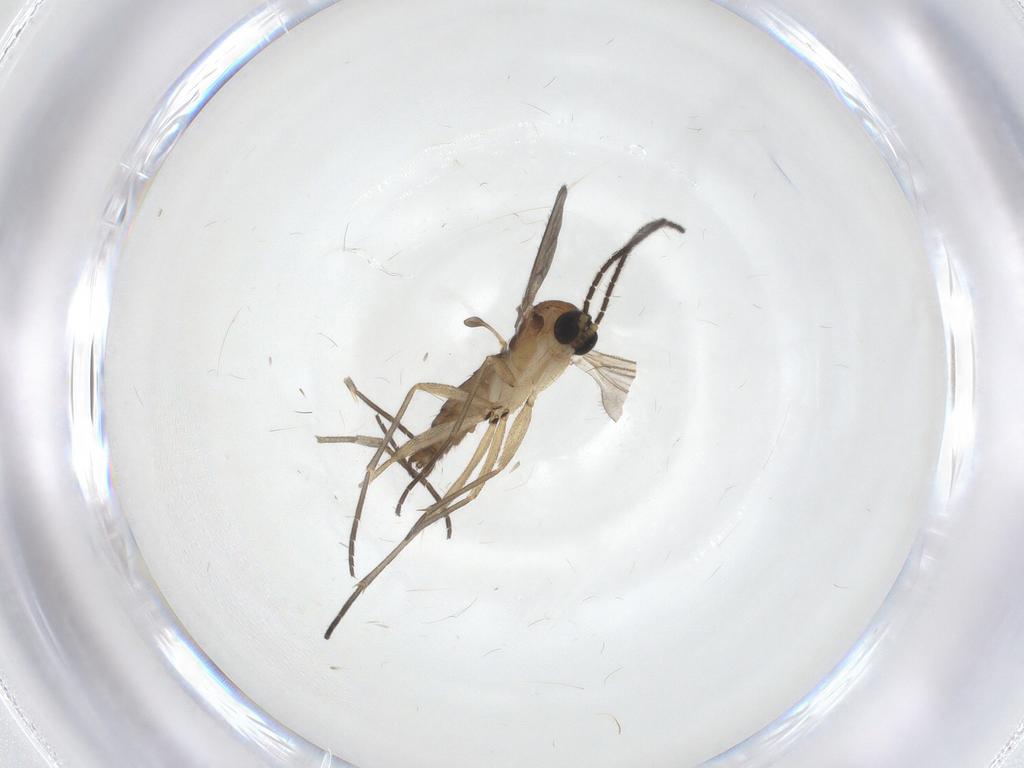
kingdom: Animalia
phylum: Arthropoda
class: Insecta
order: Diptera
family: Sciaridae
